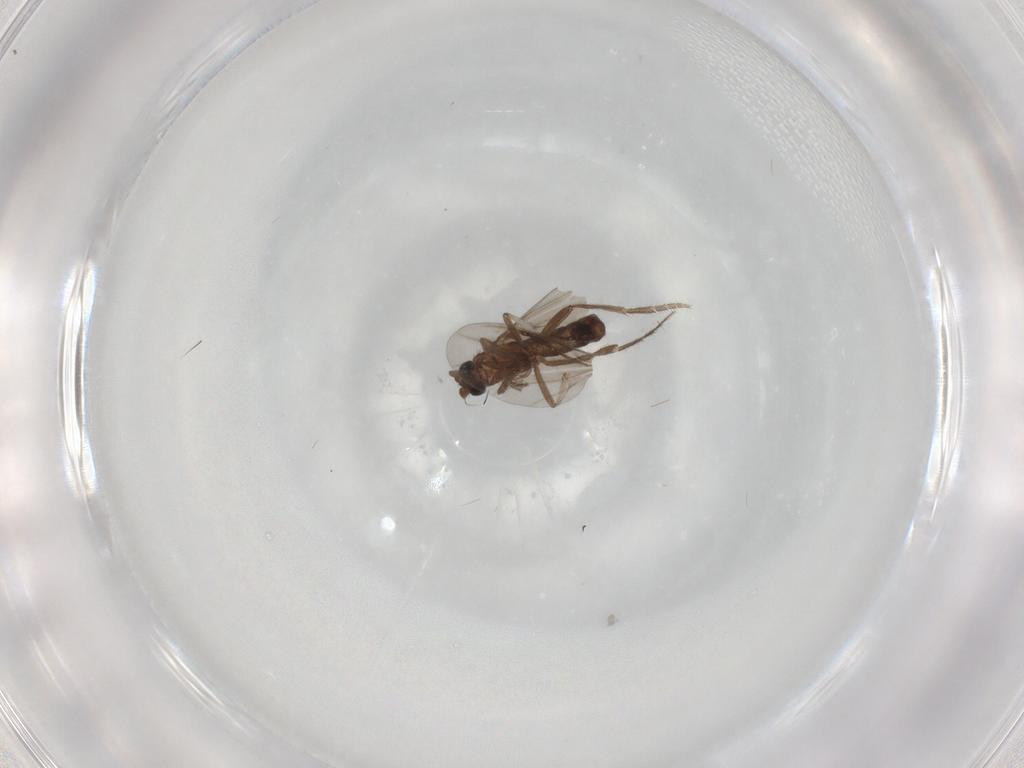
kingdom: Animalia
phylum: Arthropoda
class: Insecta
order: Diptera
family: Phoridae
